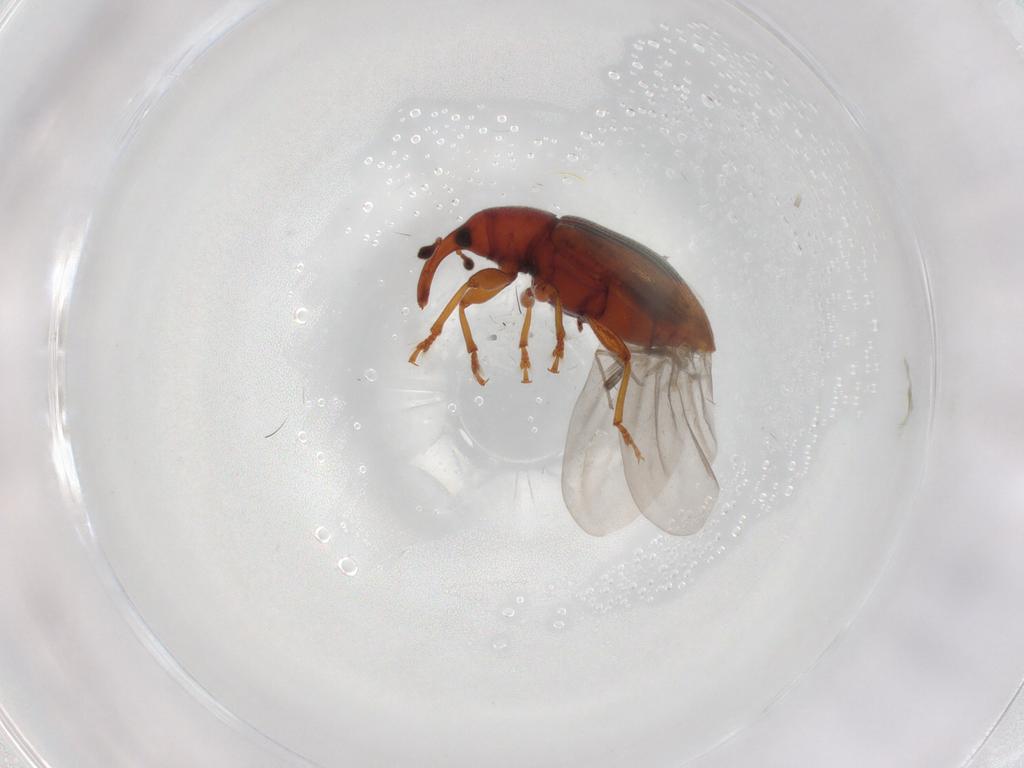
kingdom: Animalia
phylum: Arthropoda
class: Insecta
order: Coleoptera
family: Curculionidae
